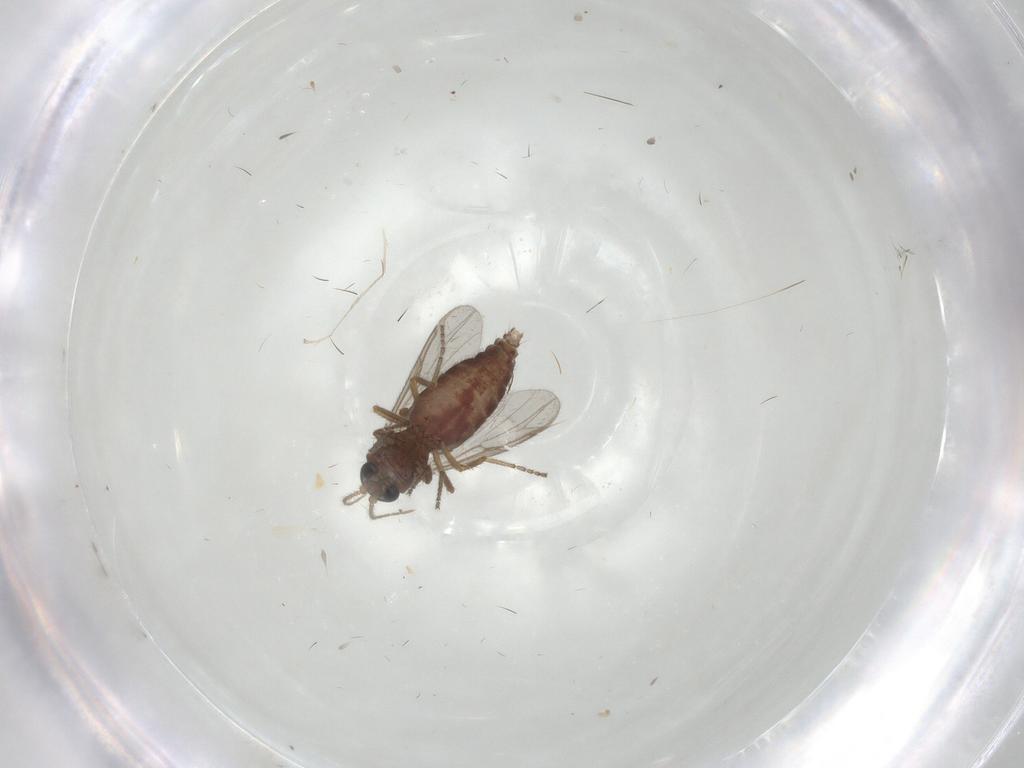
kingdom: Animalia
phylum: Arthropoda
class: Insecta
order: Diptera
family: Ceratopogonidae
